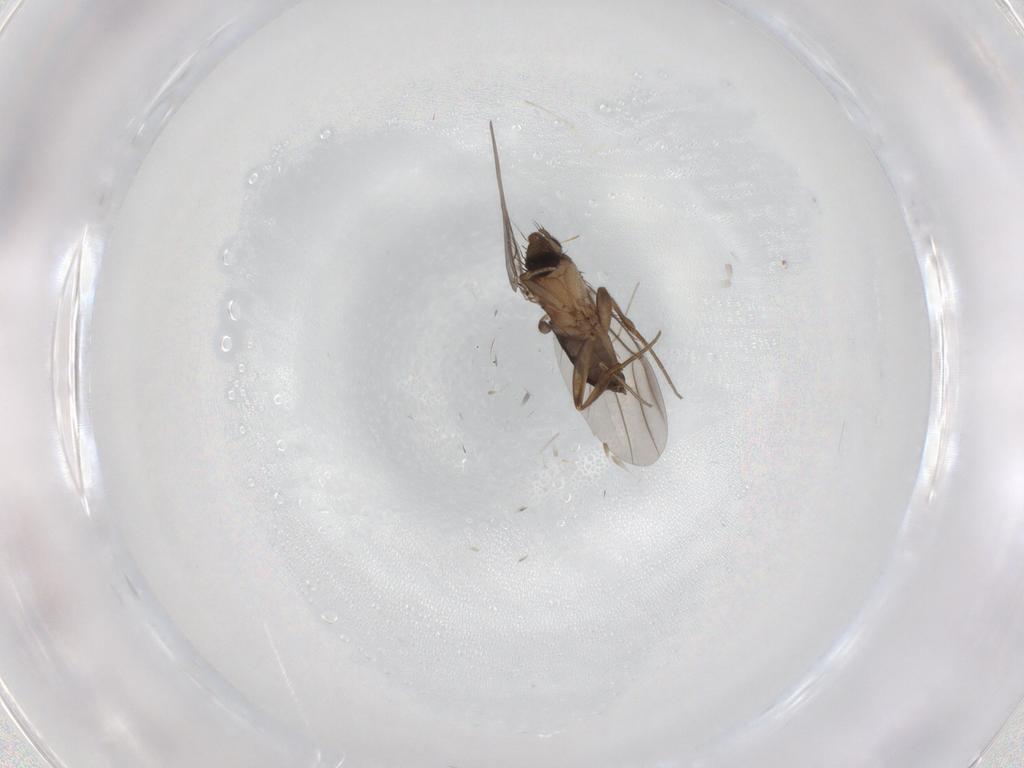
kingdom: Animalia
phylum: Arthropoda
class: Insecta
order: Diptera
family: Phoridae
